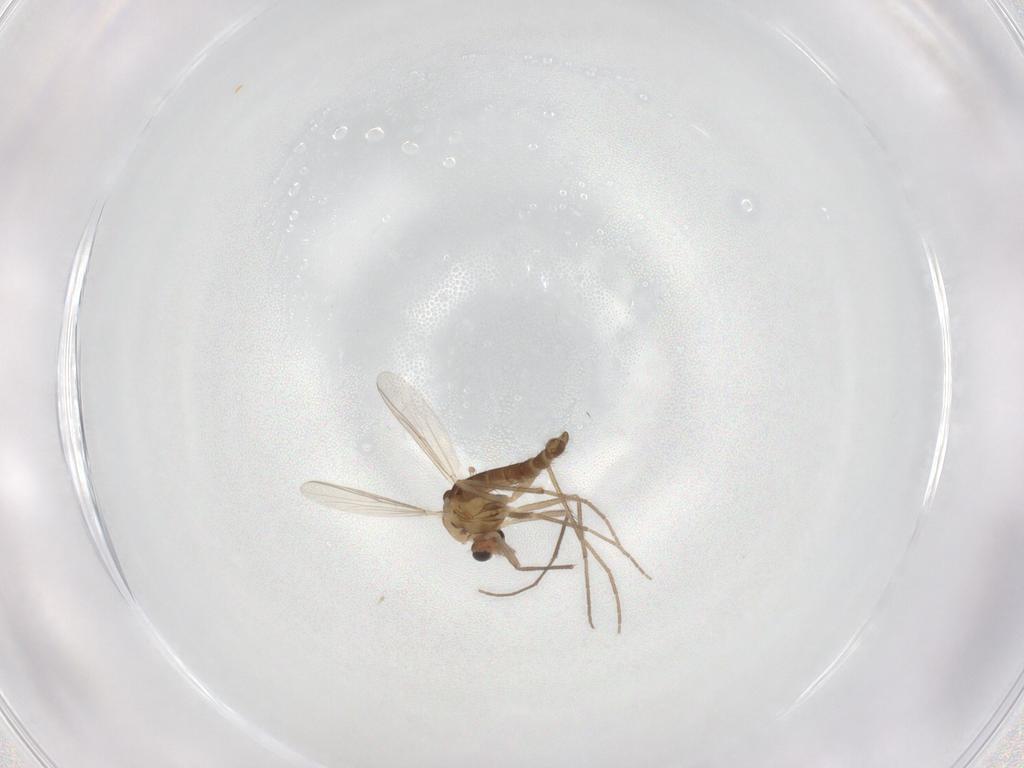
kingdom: Animalia
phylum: Arthropoda
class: Insecta
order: Diptera
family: Chironomidae
